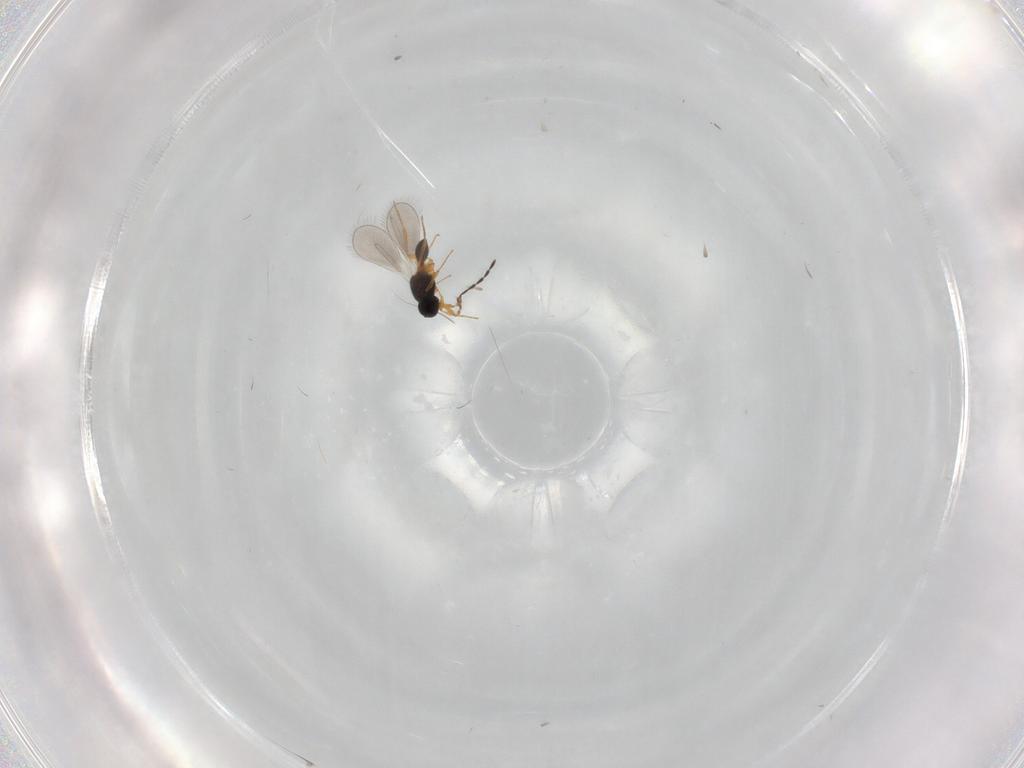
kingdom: Animalia
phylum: Arthropoda
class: Insecta
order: Hymenoptera
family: Platygastridae
